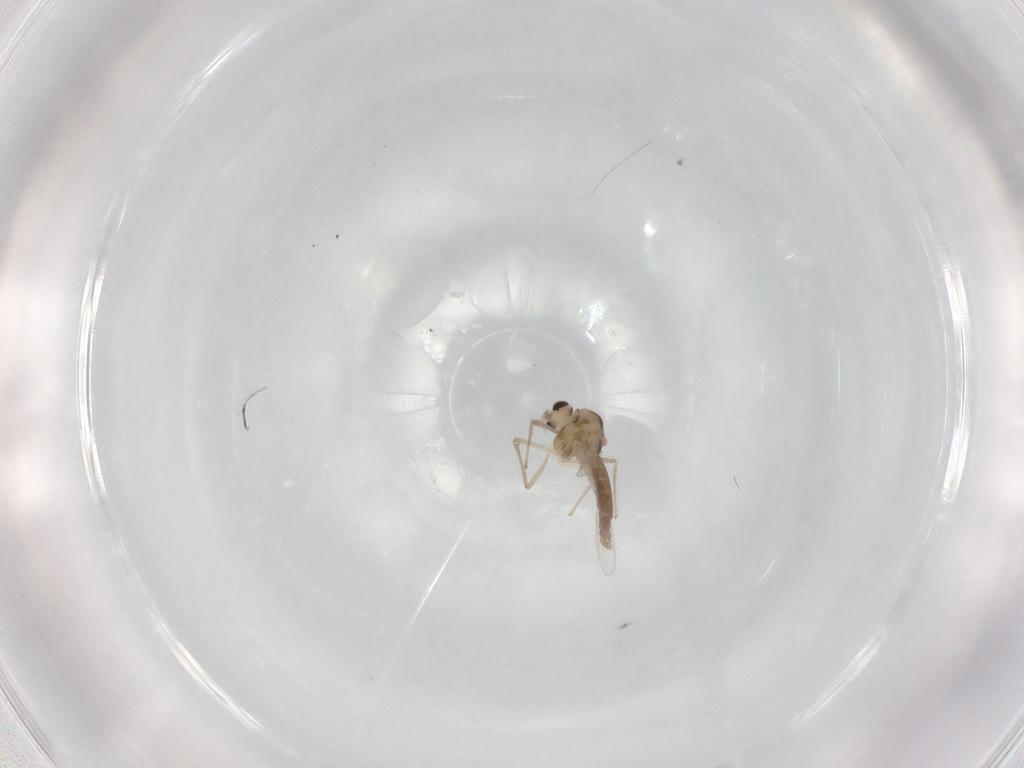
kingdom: Animalia
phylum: Arthropoda
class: Insecta
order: Diptera
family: Chironomidae
